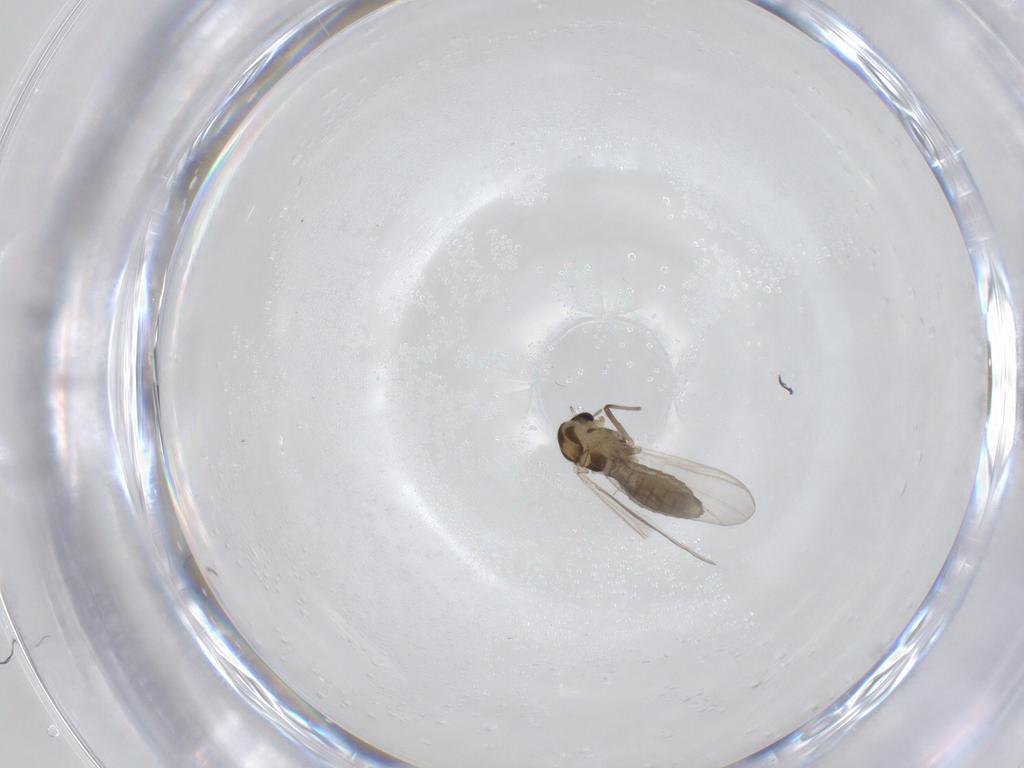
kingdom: Animalia
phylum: Arthropoda
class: Insecta
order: Diptera
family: Chironomidae
